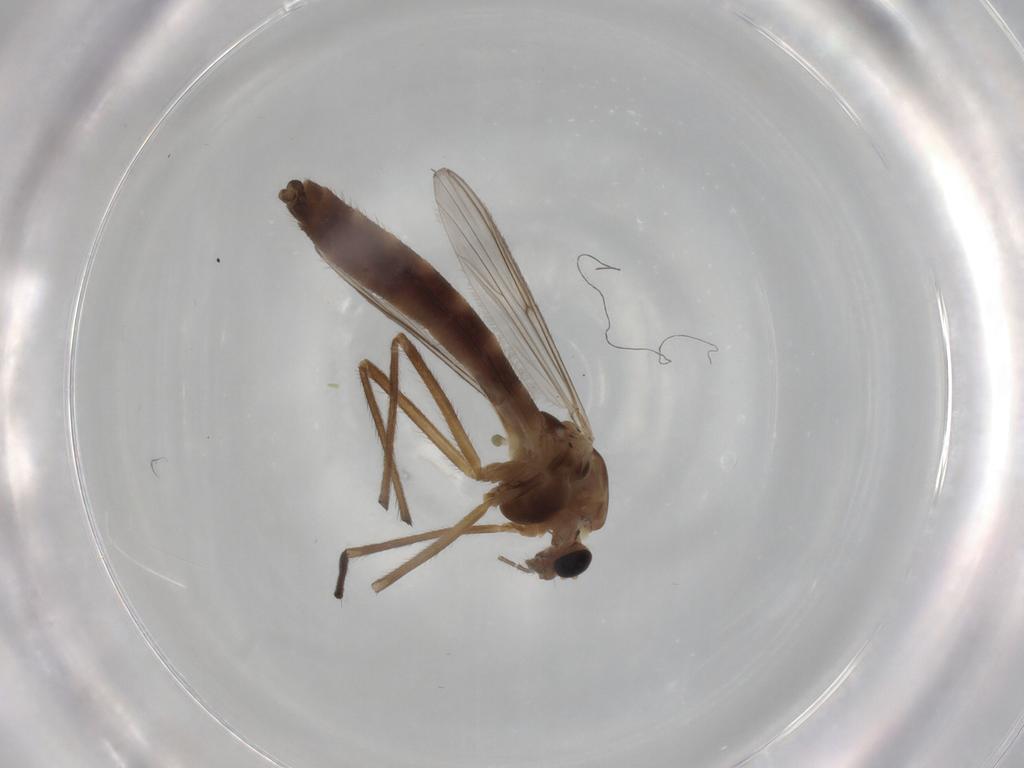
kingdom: Animalia
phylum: Arthropoda
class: Insecta
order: Diptera
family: Chironomidae
